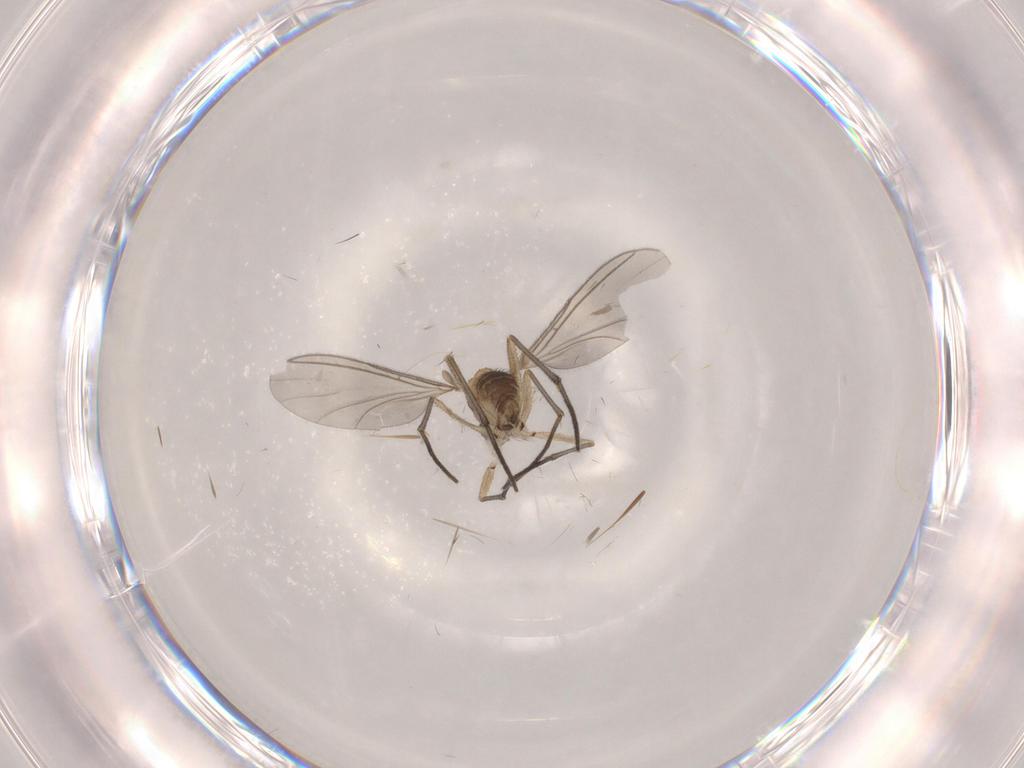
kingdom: Animalia
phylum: Arthropoda
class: Insecta
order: Diptera
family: Sciaridae
